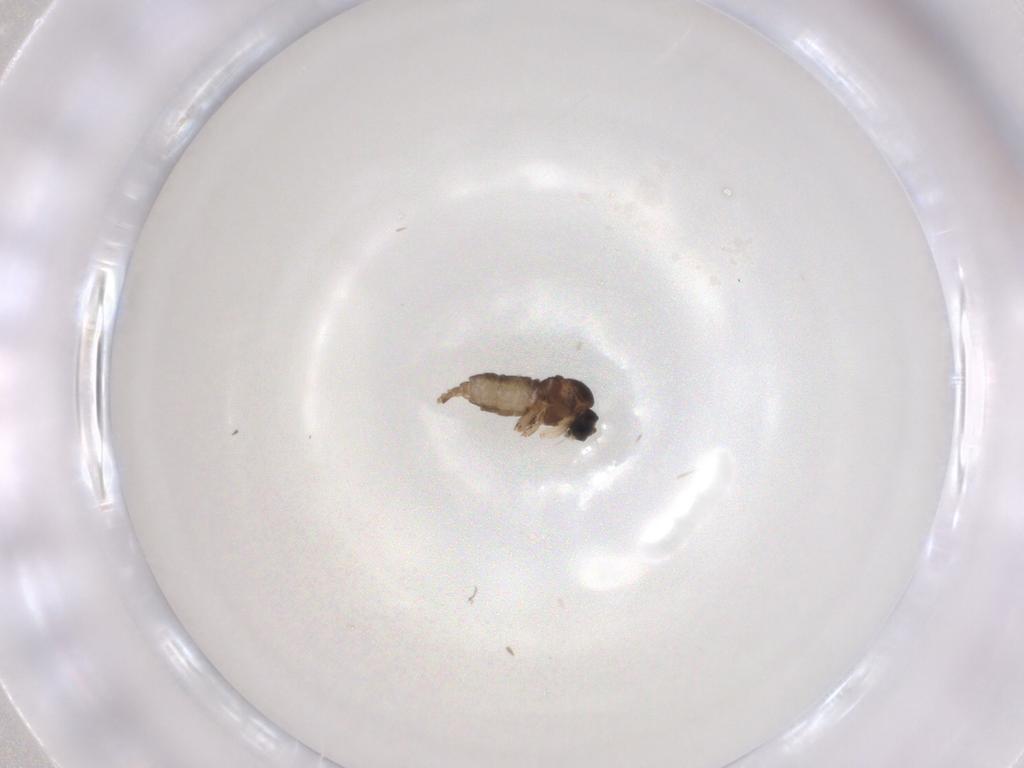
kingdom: Animalia
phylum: Arthropoda
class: Insecta
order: Diptera
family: Sciaridae
